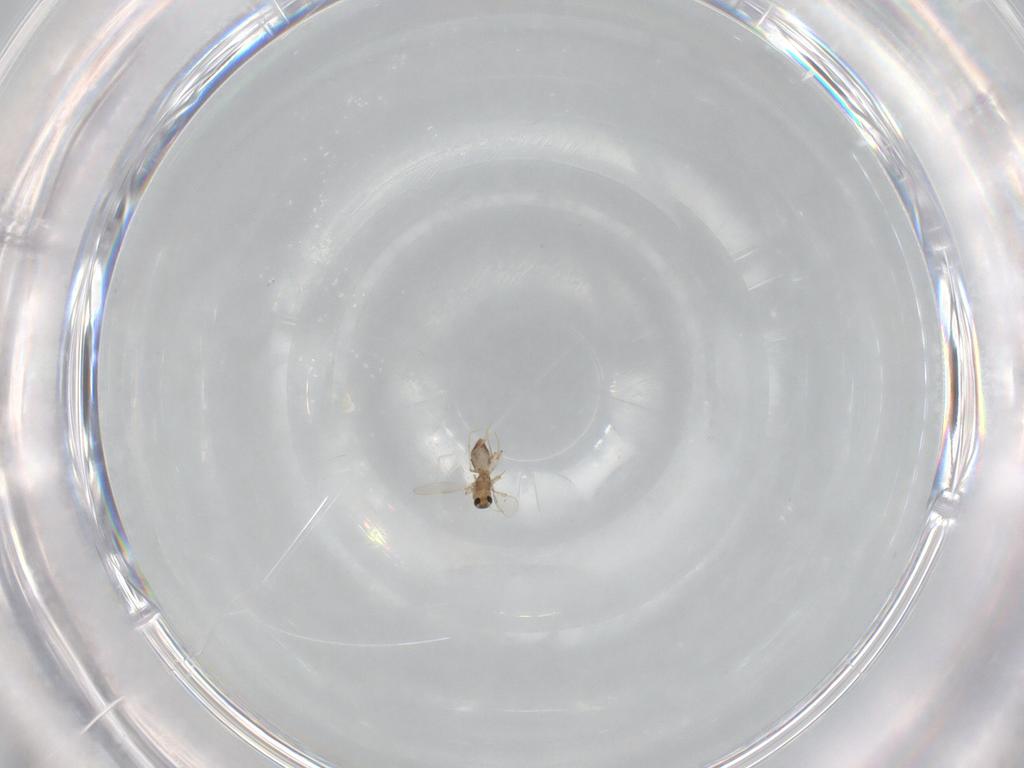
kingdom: Animalia
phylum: Arthropoda
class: Insecta
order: Diptera
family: Chironomidae
